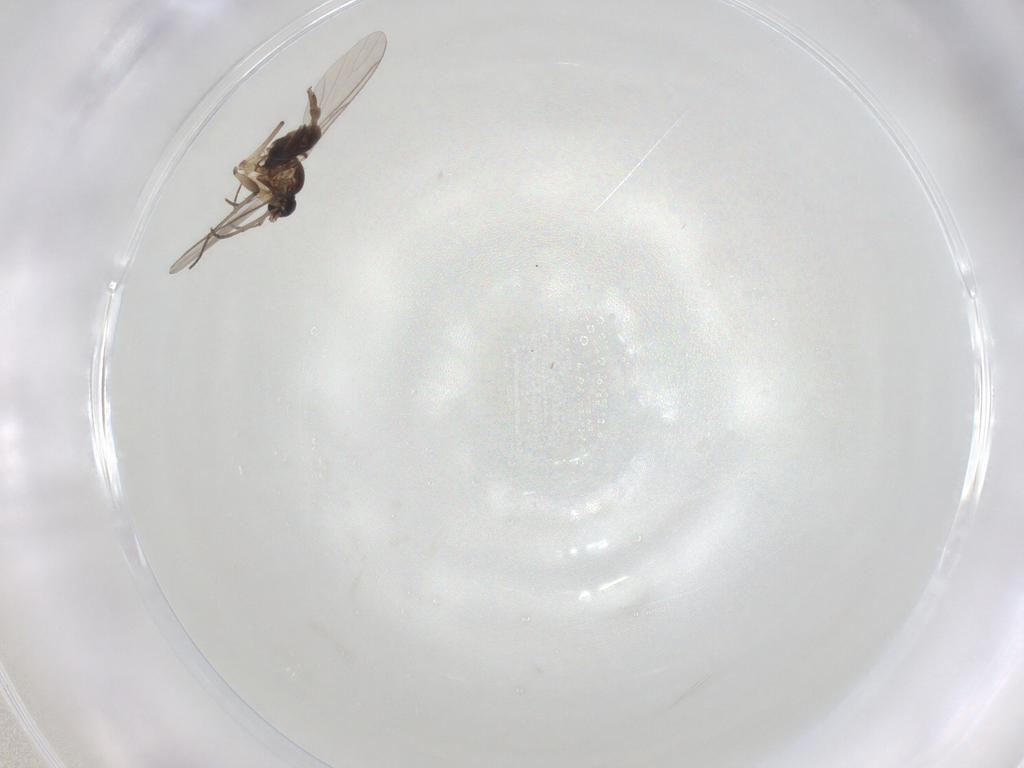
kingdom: Animalia
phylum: Arthropoda
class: Insecta
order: Diptera
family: Sciaridae
